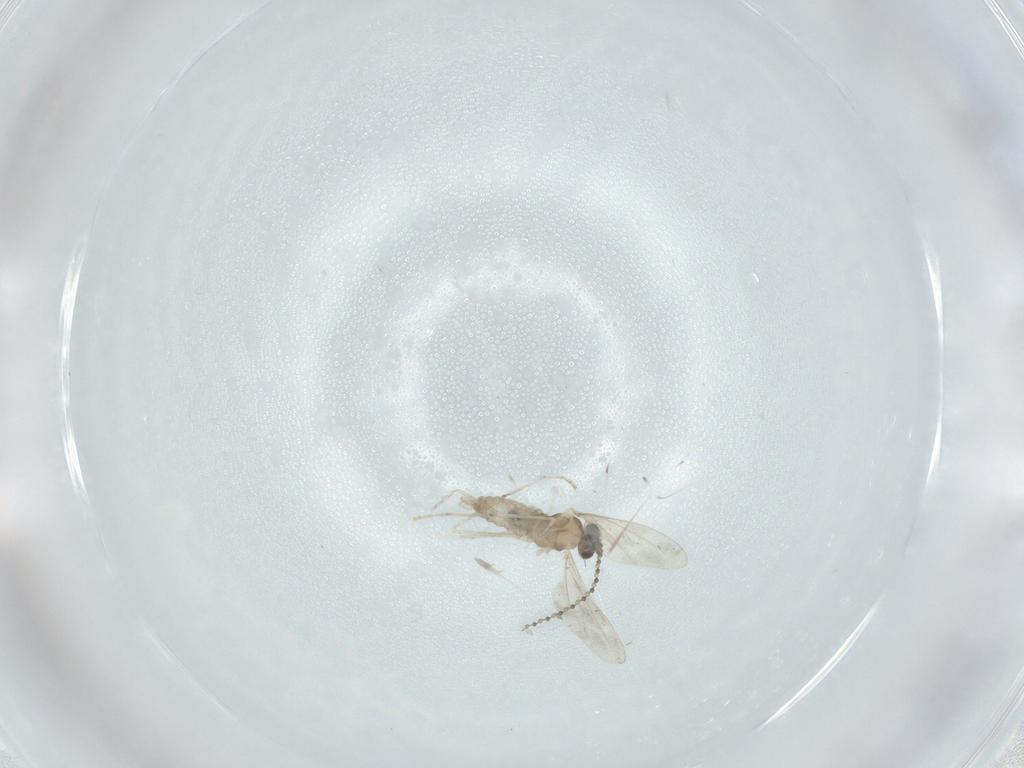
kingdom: Animalia
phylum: Arthropoda
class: Insecta
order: Diptera
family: Cecidomyiidae
